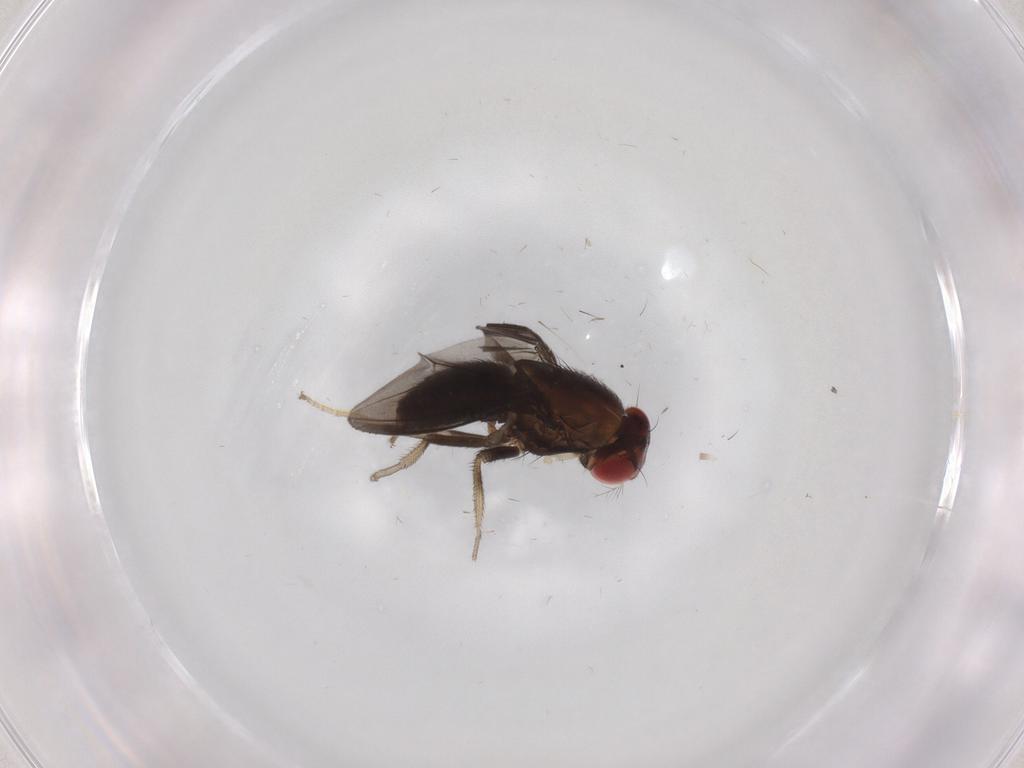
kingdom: Animalia
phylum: Arthropoda
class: Insecta
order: Diptera
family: Drosophilidae
